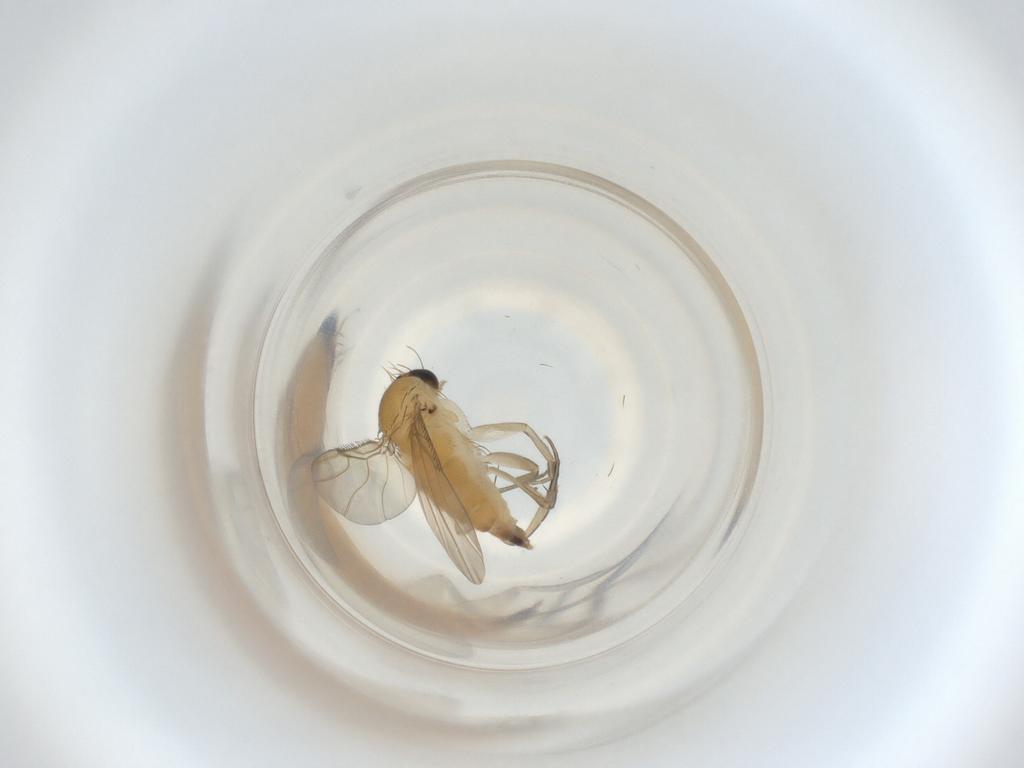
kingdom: Animalia
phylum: Arthropoda
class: Insecta
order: Diptera
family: Phoridae
